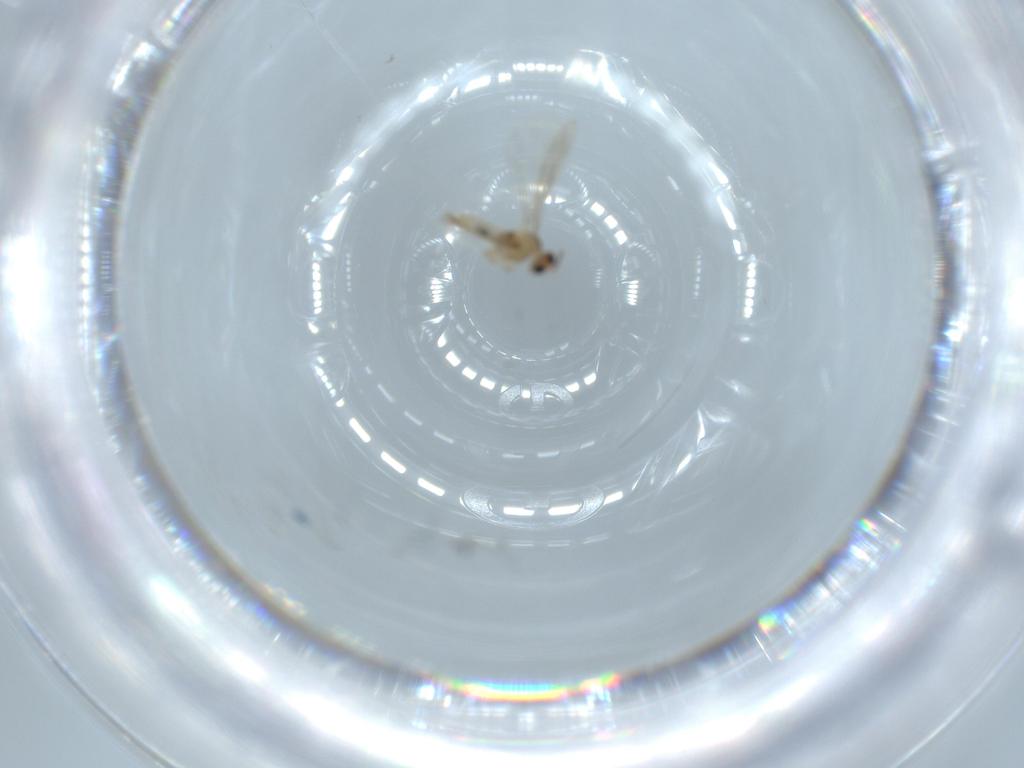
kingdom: Animalia
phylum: Arthropoda
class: Insecta
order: Diptera
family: Cecidomyiidae
